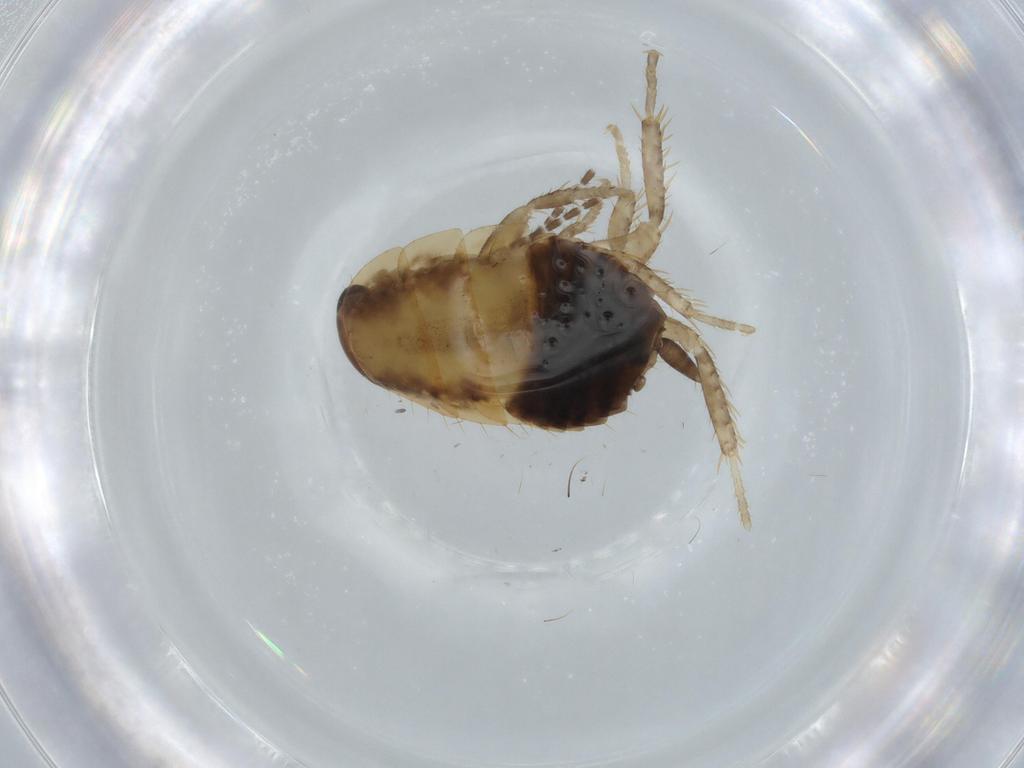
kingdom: Animalia
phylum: Arthropoda
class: Insecta
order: Blattodea
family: Ectobiidae
